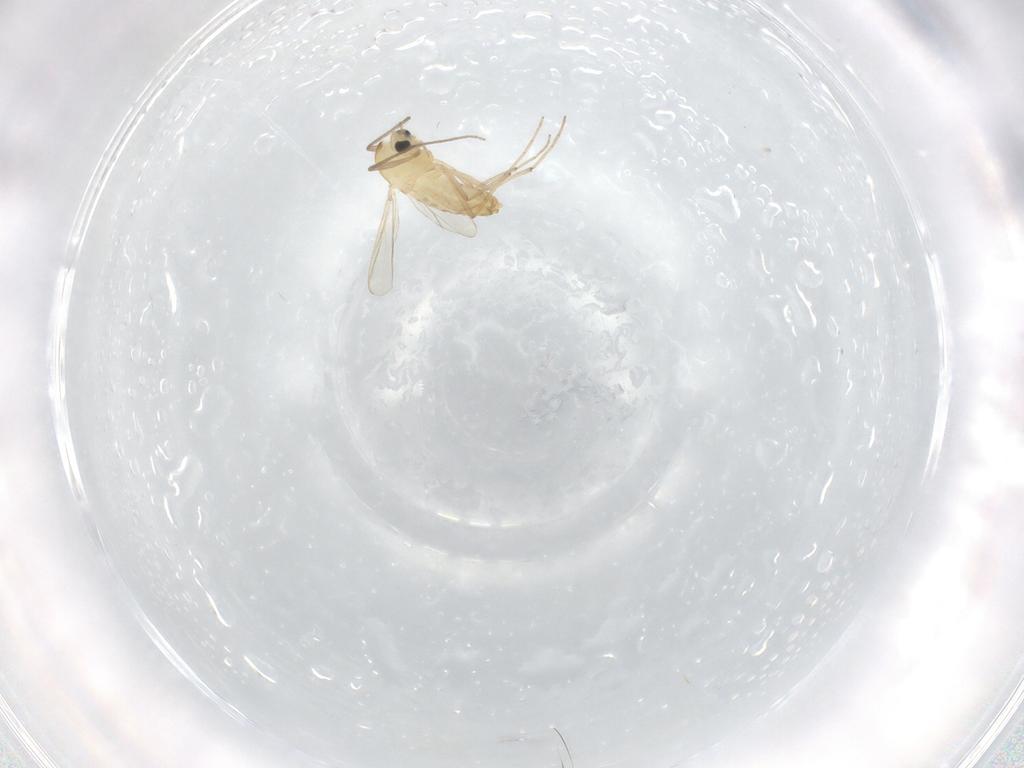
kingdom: Animalia
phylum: Arthropoda
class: Insecta
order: Diptera
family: Chironomidae
